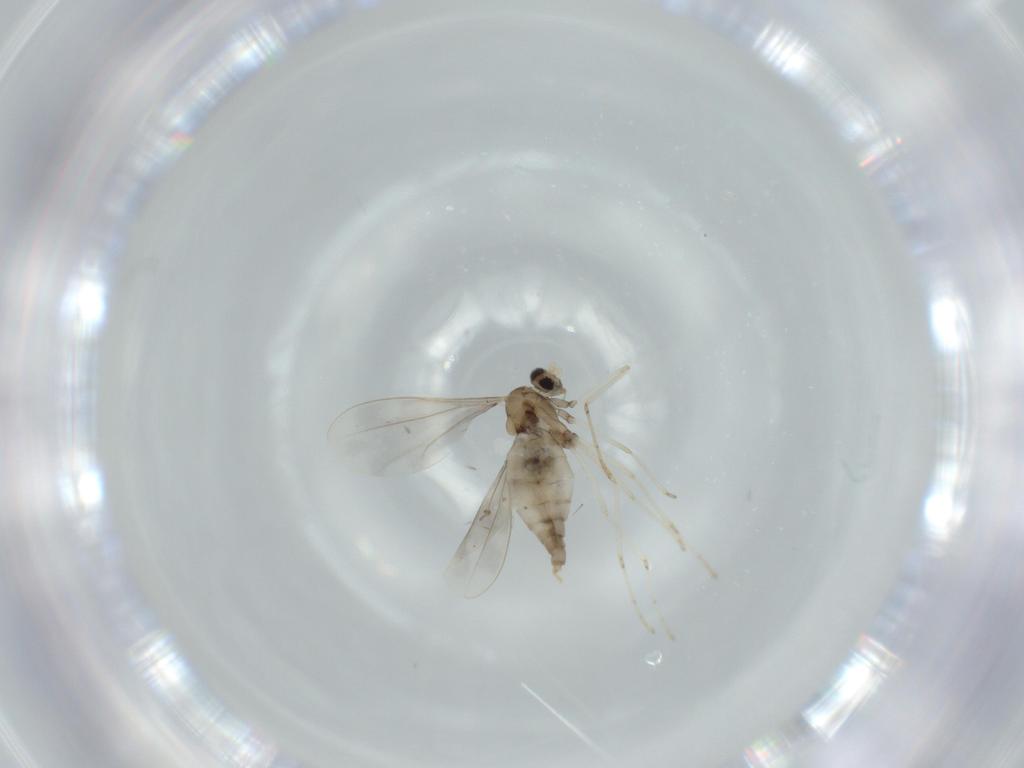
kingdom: Animalia
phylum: Arthropoda
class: Insecta
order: Diptera
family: Cecidomyiidae
